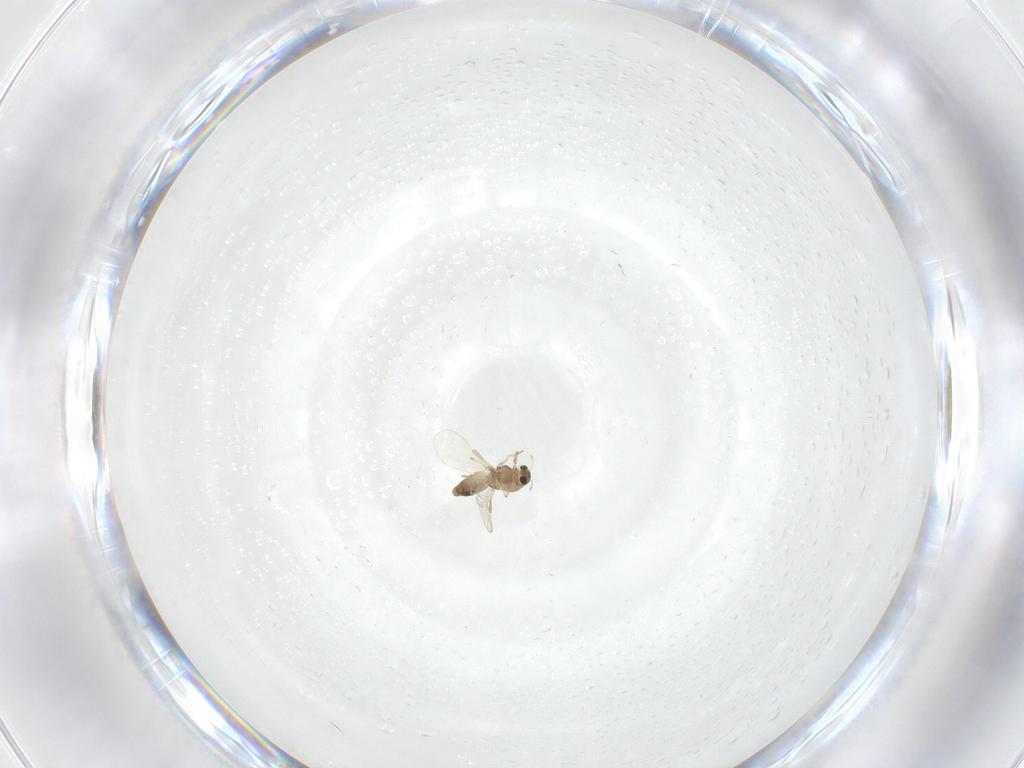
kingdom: Animalia
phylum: Arthropoda
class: Insecta
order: Diptera
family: Chironomidae
